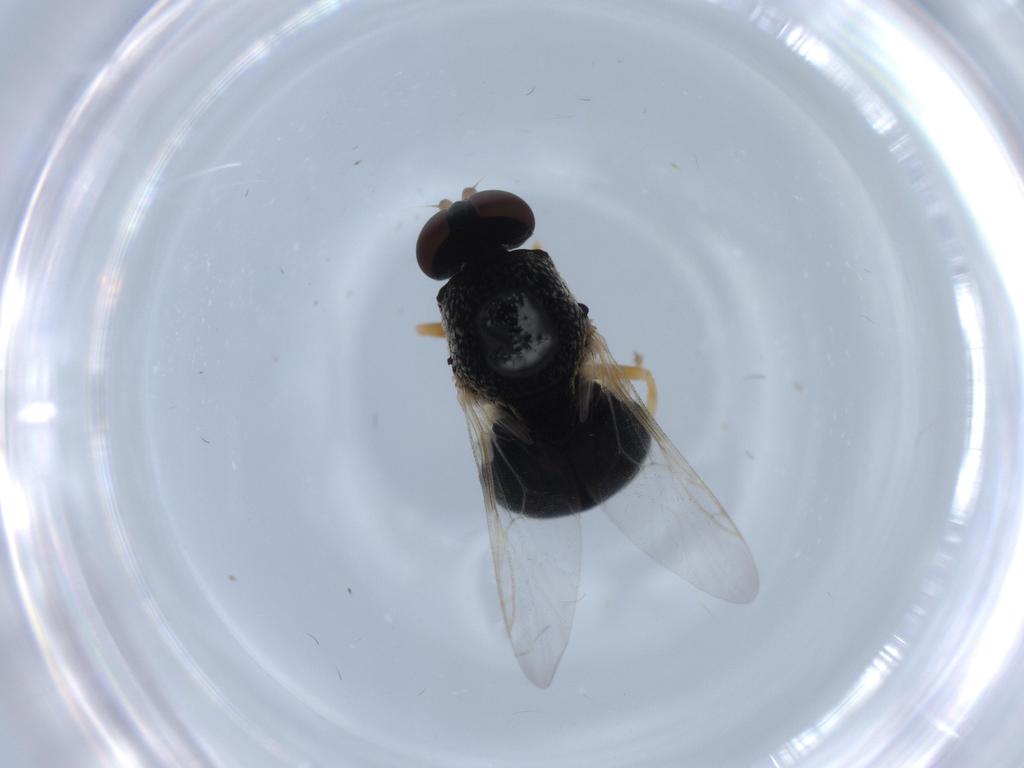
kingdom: Animalia
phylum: Arthropoda
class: Insecta
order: Diptera
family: Stratiomyidae
